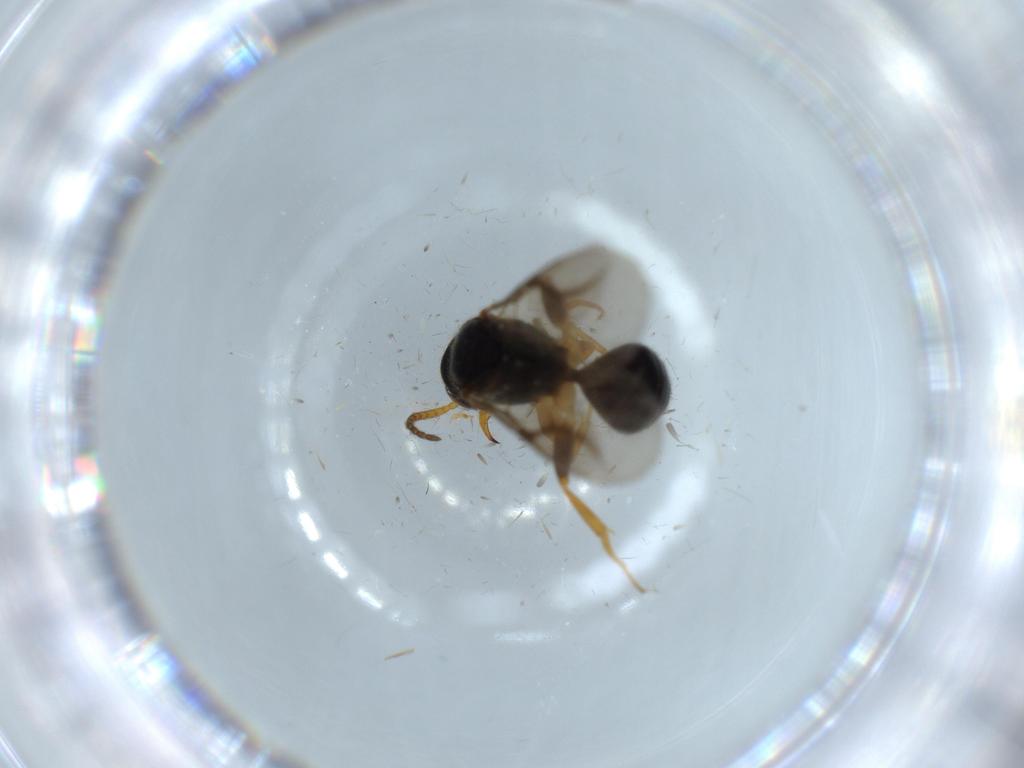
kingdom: Animalia
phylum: Arthropoda
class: Insecta
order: Hymenoptera
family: Bethylidae
